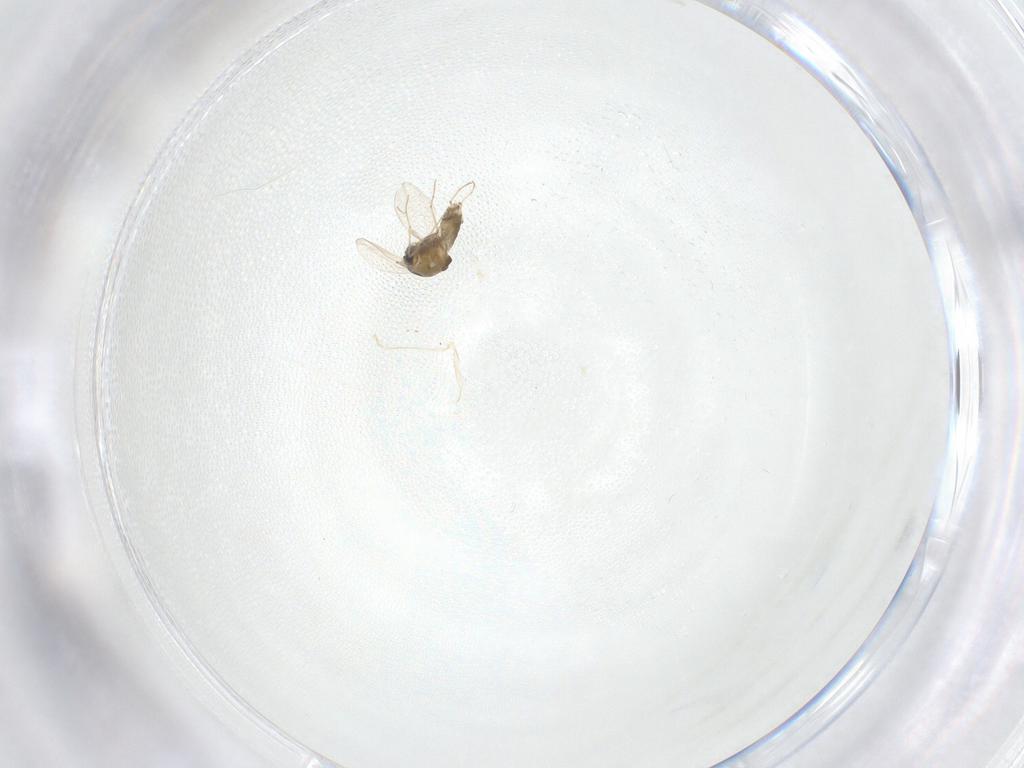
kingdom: Animalia
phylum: Arthropoda
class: Insecta
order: Diptera
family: Chironomidae
